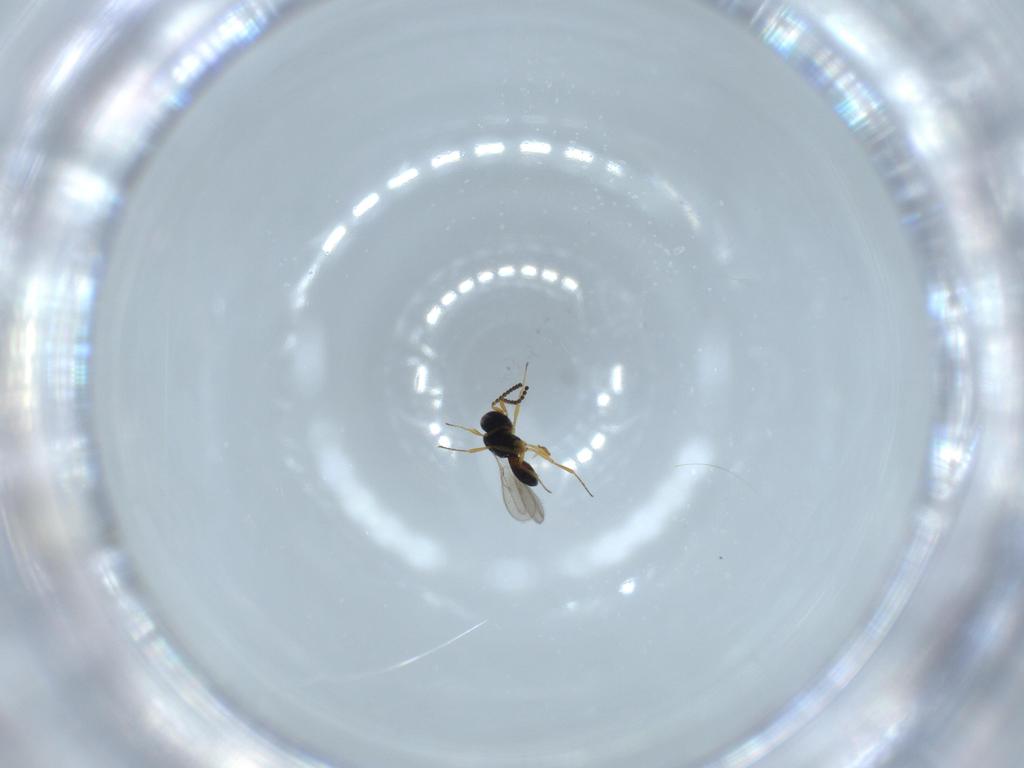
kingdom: Animalia
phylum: Arthropoda
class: Insecta
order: Hymenoptera
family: Scelionidae
